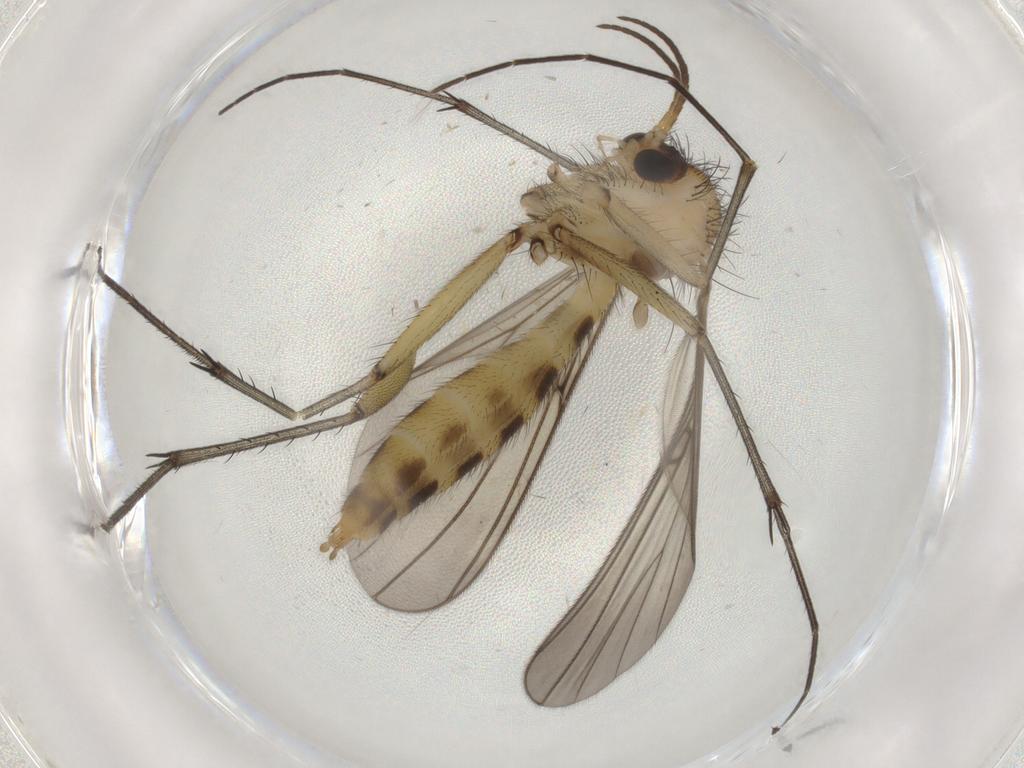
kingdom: Animalia
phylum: Arthropoda
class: Insecta
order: Diptera
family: Mycetophilidae
